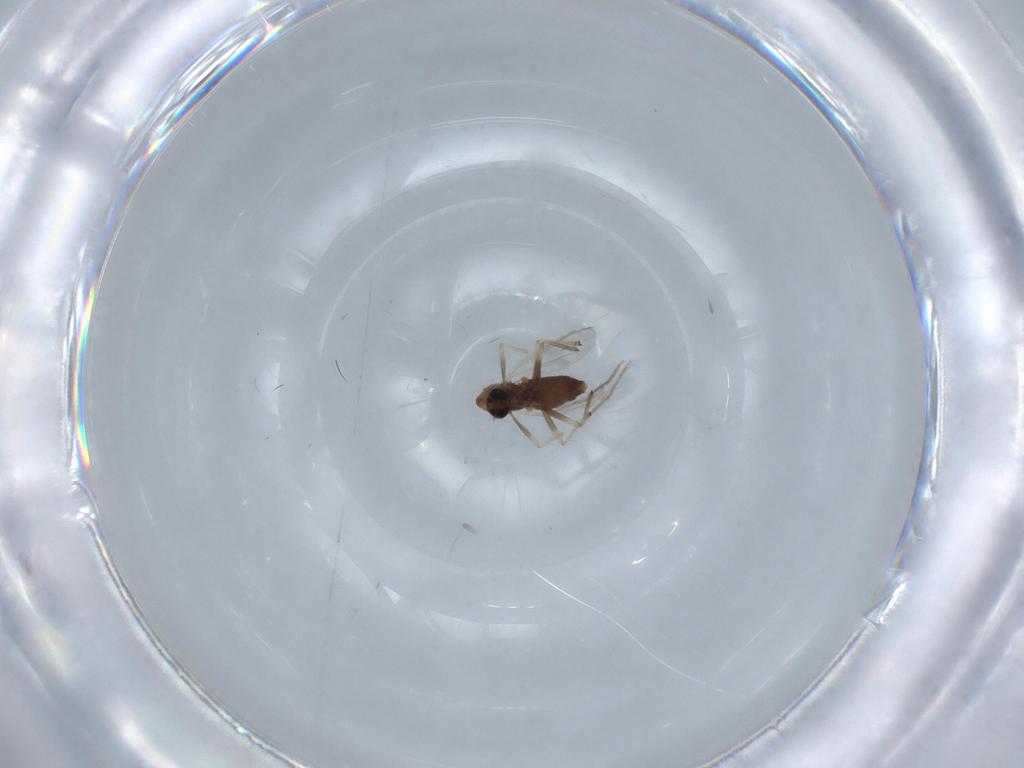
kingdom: Animalia
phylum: Arthropoda
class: Insecta
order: Diptera
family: Chironomidae
